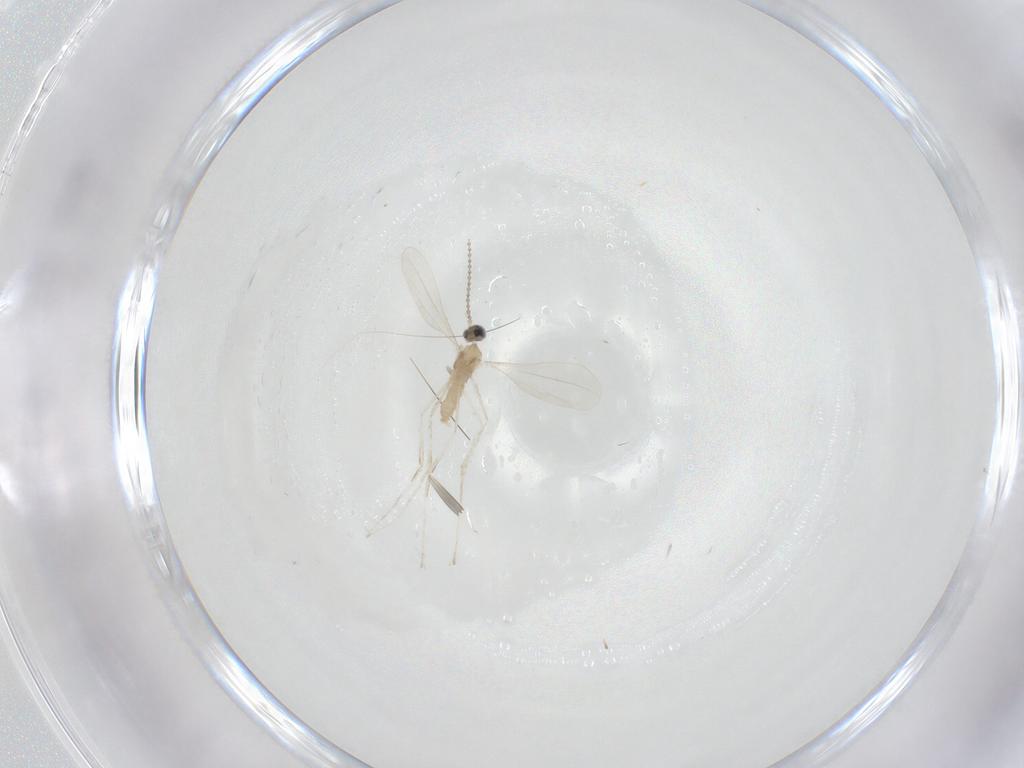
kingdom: Animalia
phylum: Arthropoda
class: Insecta
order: Diptera
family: Cecidomyiidae
